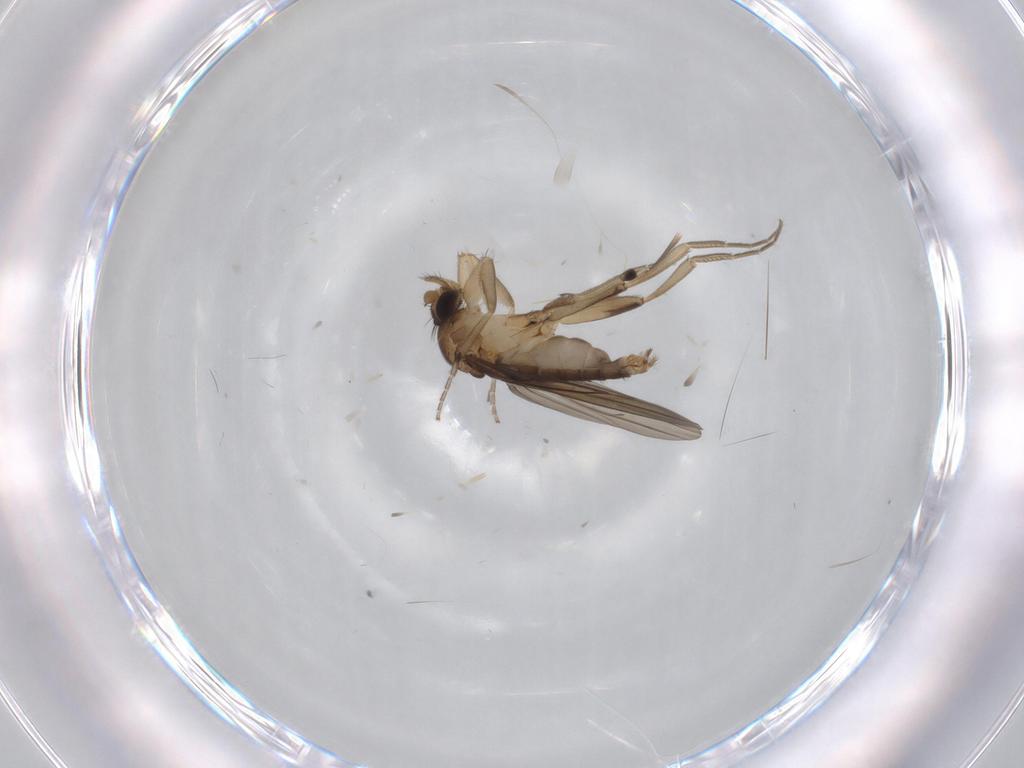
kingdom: Animalia
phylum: Arthropoda
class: Insecta
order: Diptera
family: Phoridae
